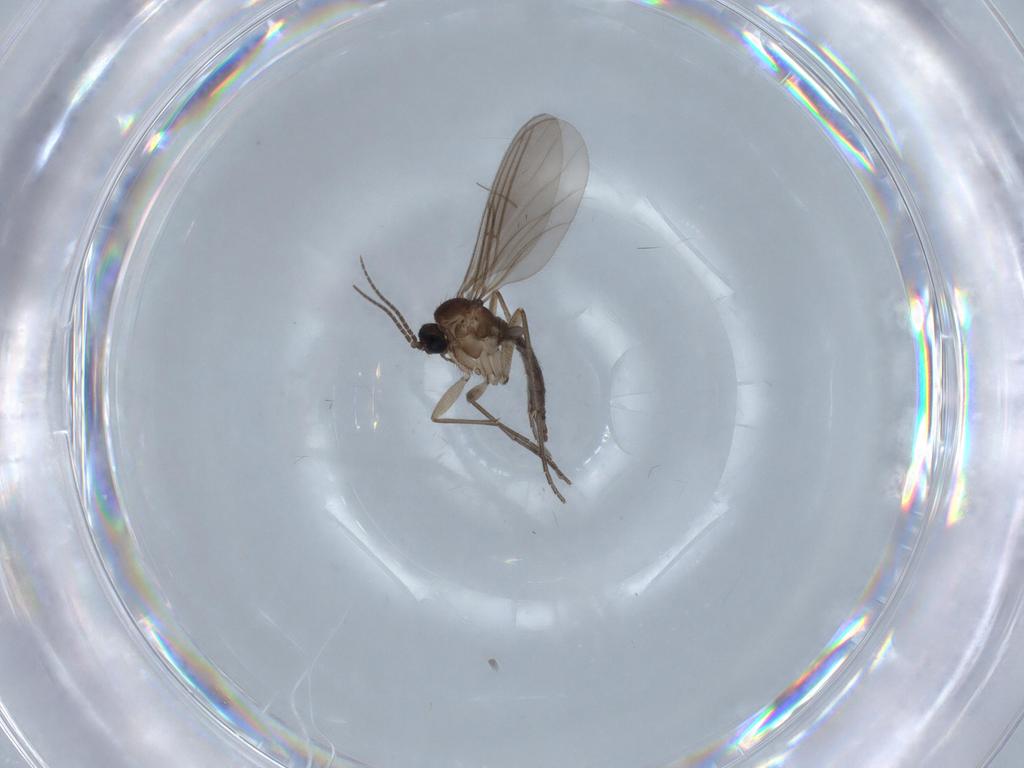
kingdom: Animalia
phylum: Arthropoda
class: Insecta
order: Diptera
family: Sciaridae
